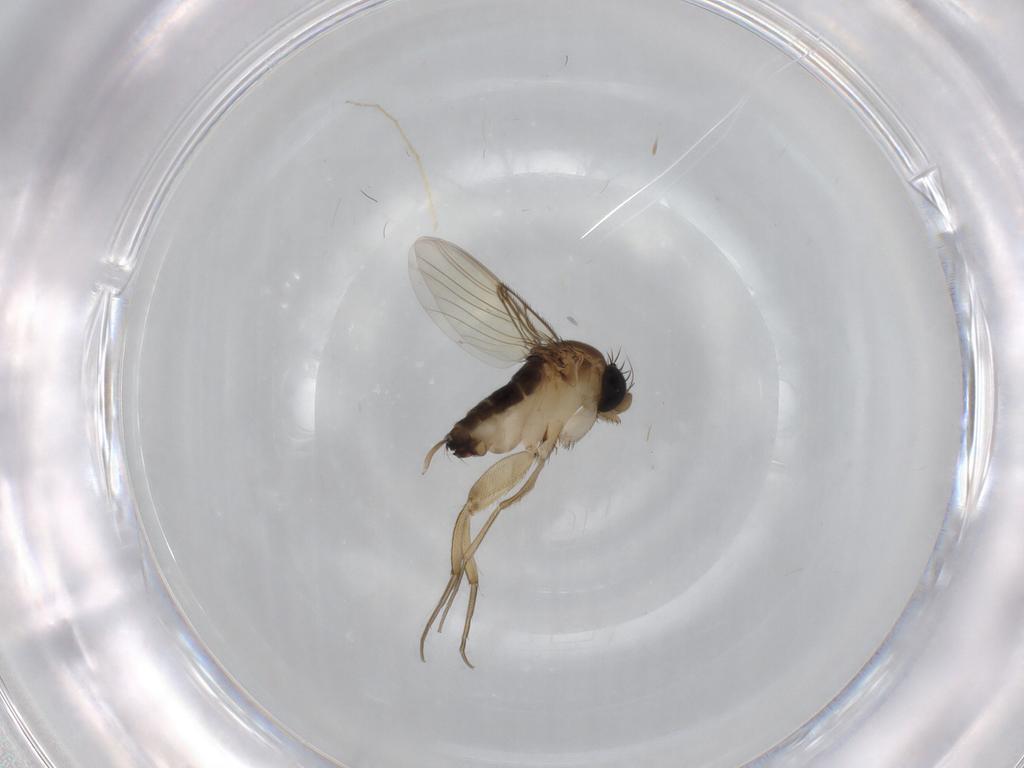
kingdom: Animalia
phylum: Arthropoda
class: Insecta
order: Diptera
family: Phoridae
